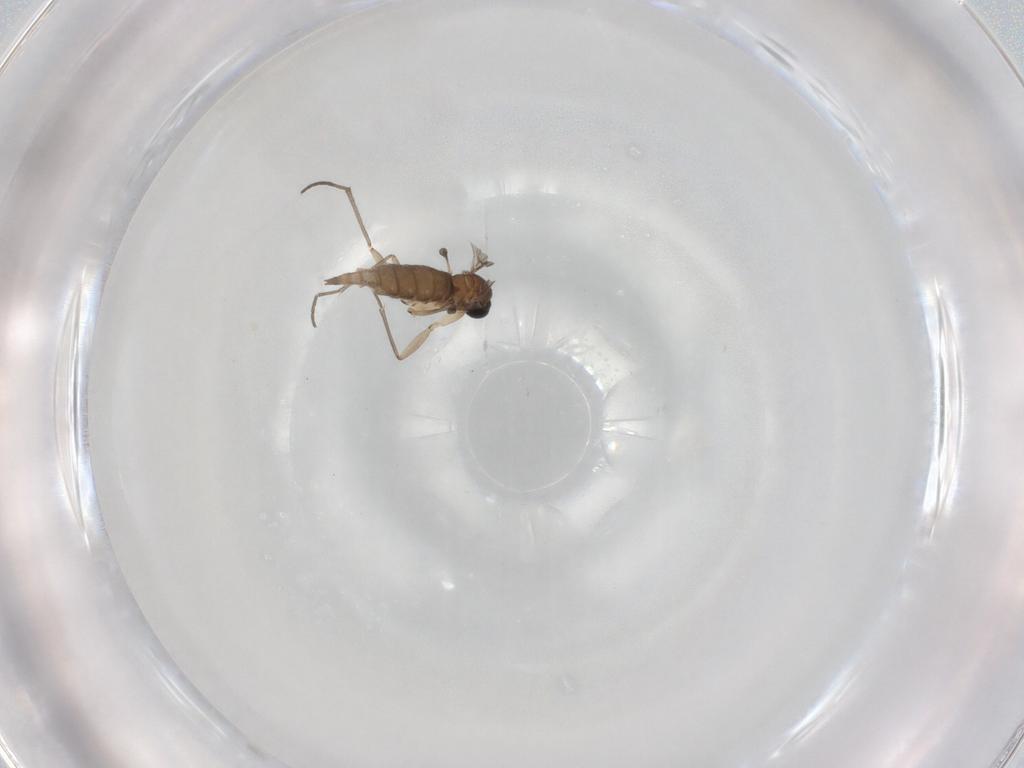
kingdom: Animalia
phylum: Arthropoda
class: Insecta
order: Diptera
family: Sciaridae
